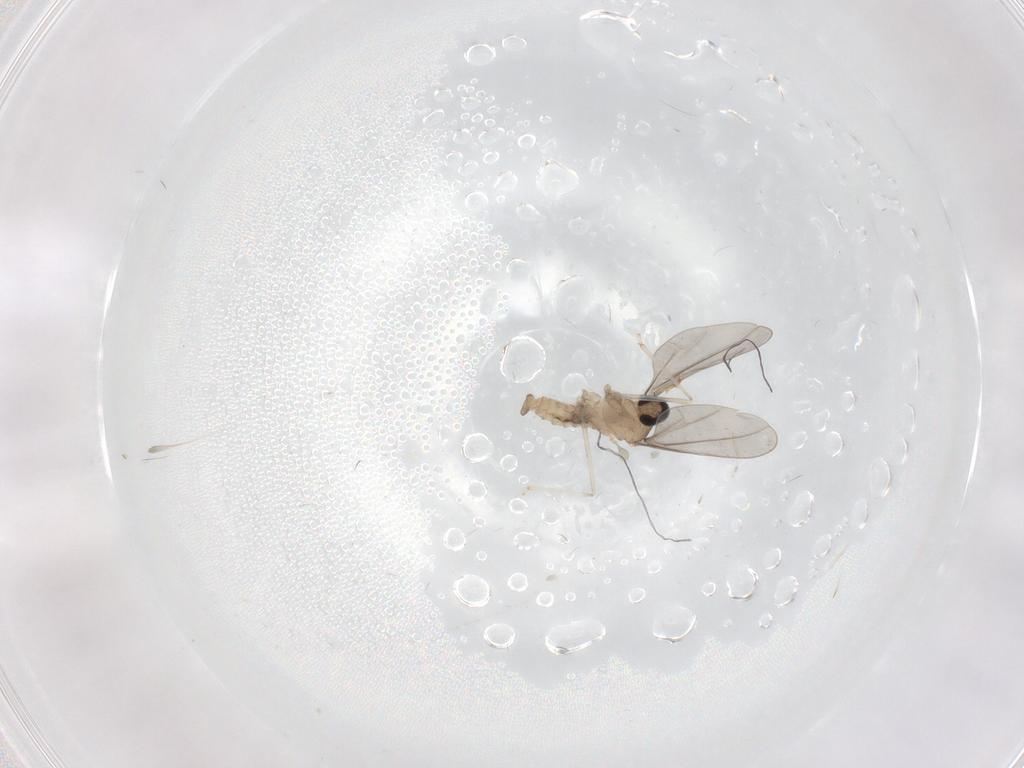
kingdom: Animalia
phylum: Arthropoda
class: Insecta
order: Diptera
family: Cecidomyiidae
